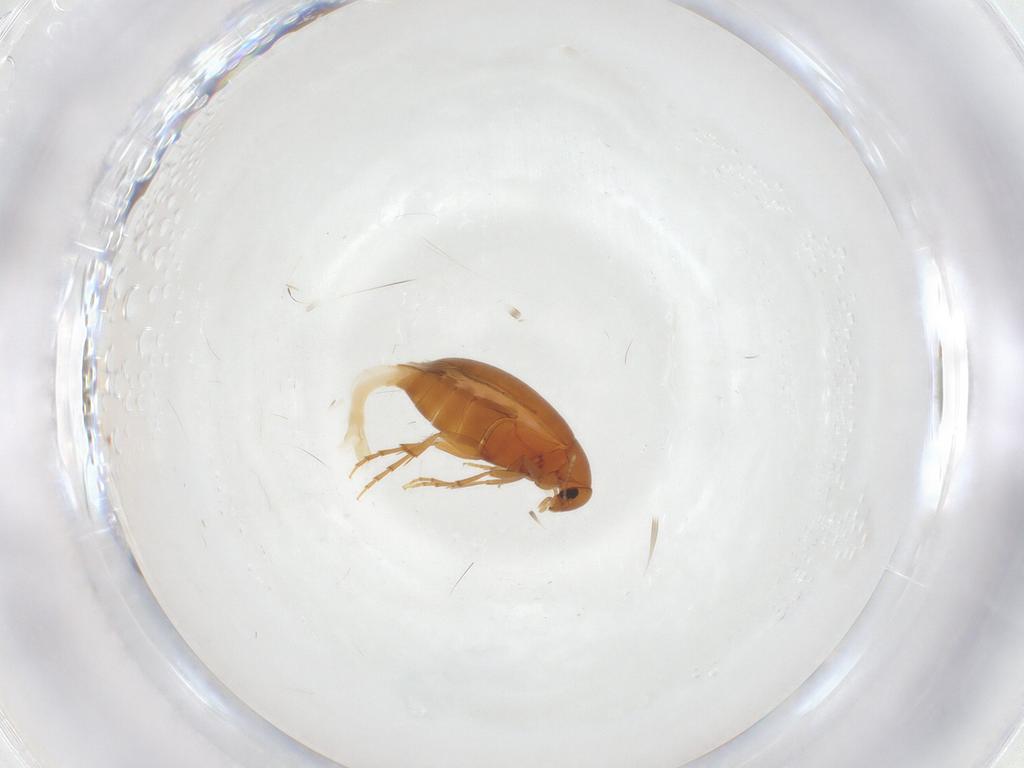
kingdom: Animalia
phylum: Arthropoda
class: Insecta
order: Coleoptera
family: Scraptiidae
